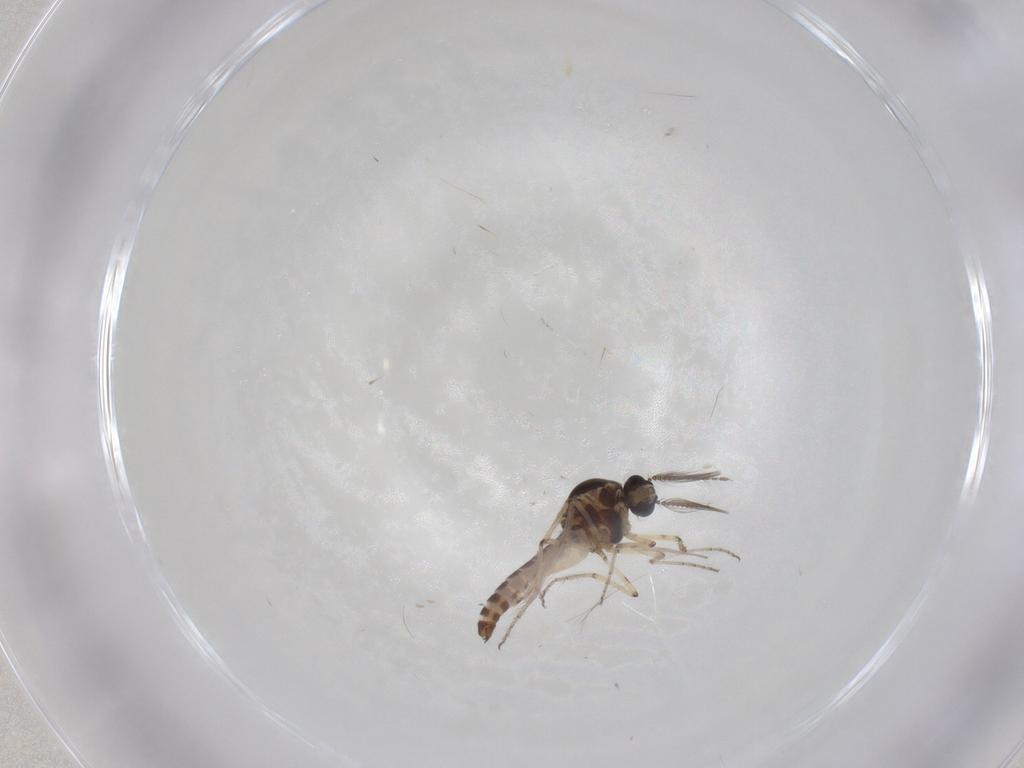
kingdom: Animalia
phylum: Arthropoda
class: Insecta
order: Diptera
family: Ceratopogonidae
